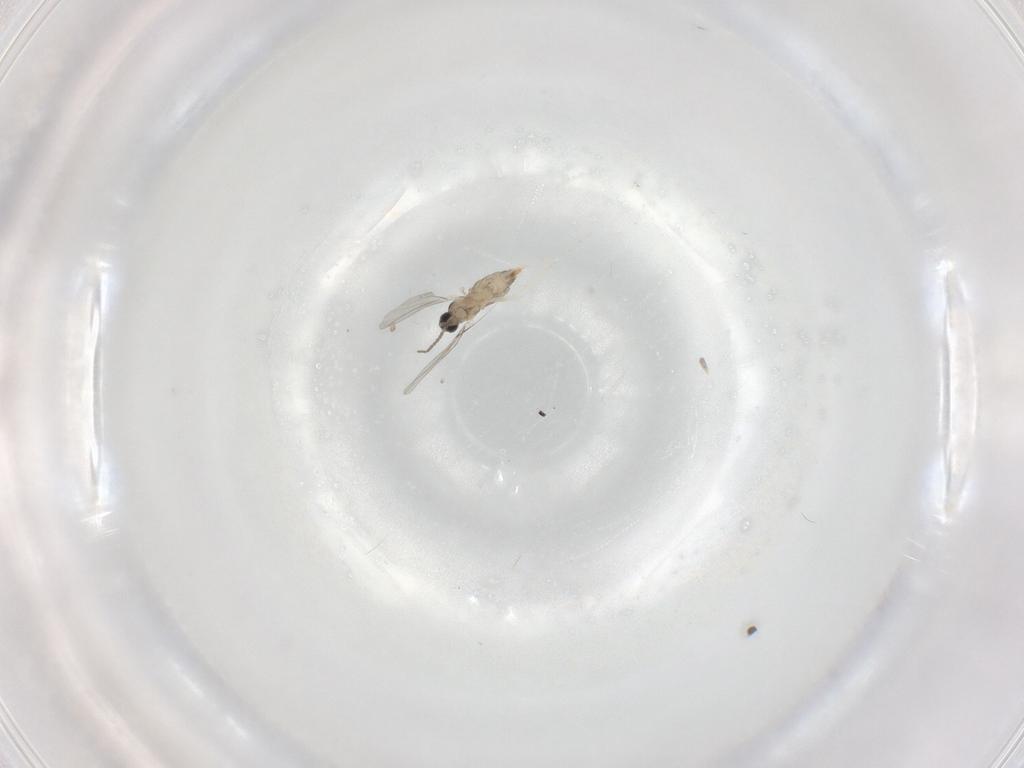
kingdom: Animalia
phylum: Arthropoda
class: Insecta
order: Diptera
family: Cecidomyiidae
